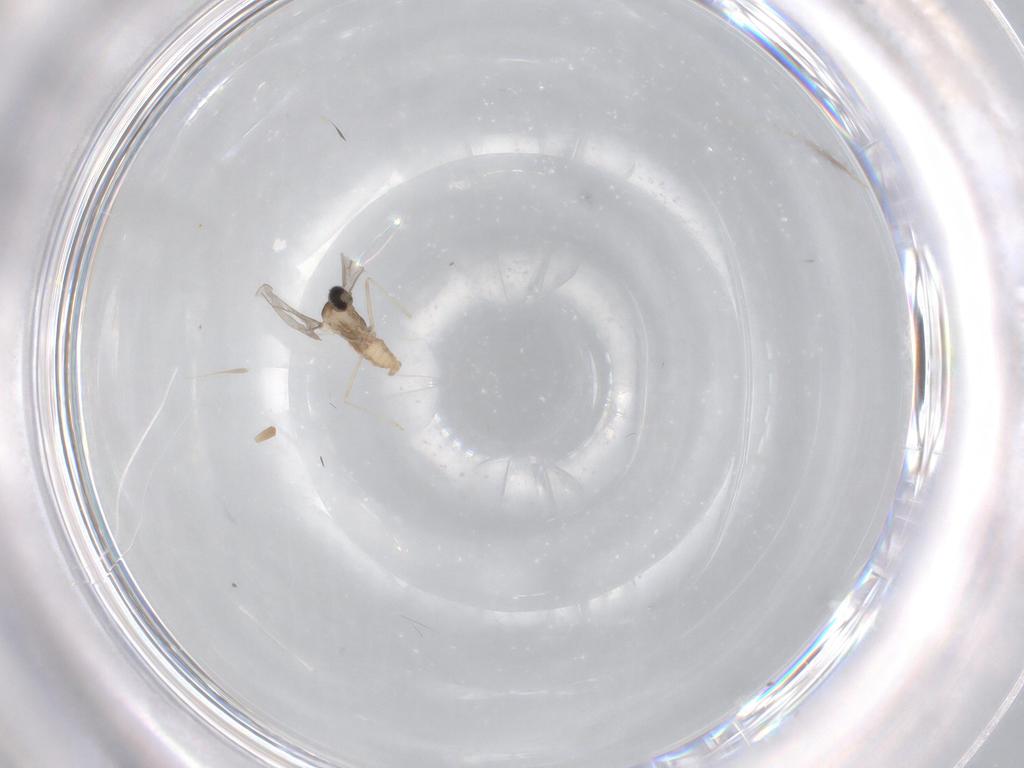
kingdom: Animalia
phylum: Arthropoda
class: Insecta
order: Diptera
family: Cecidomyiidae
